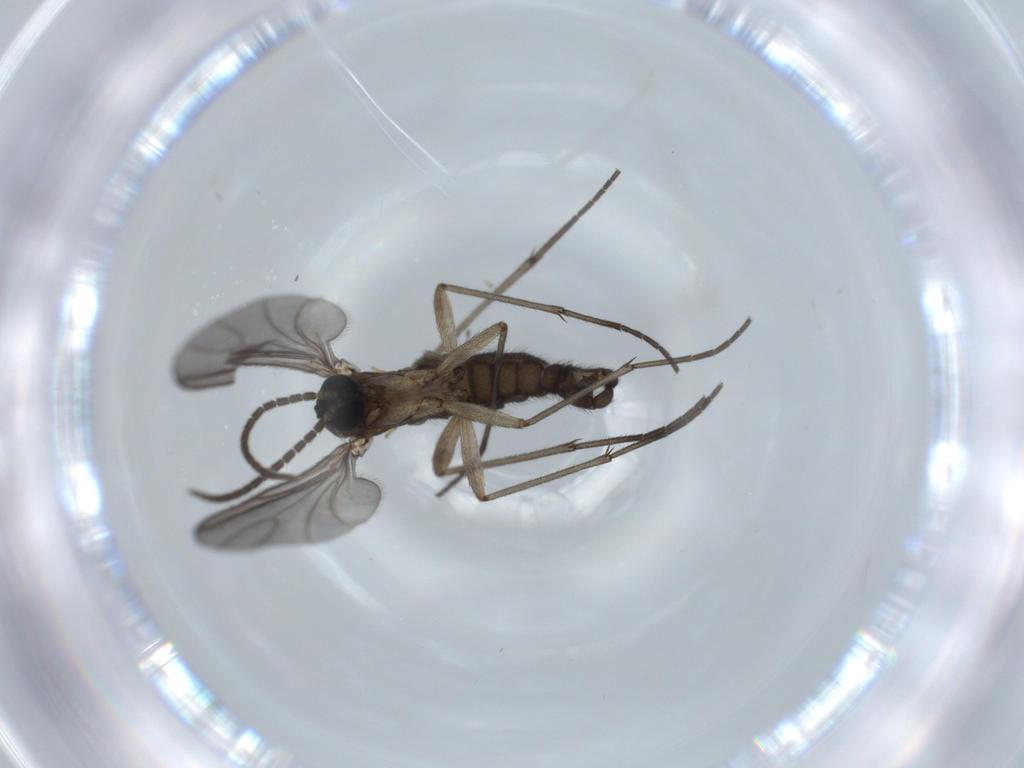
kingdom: Animalia
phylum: Arthropoda
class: Insecta
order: Diptera
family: Sciaridae
